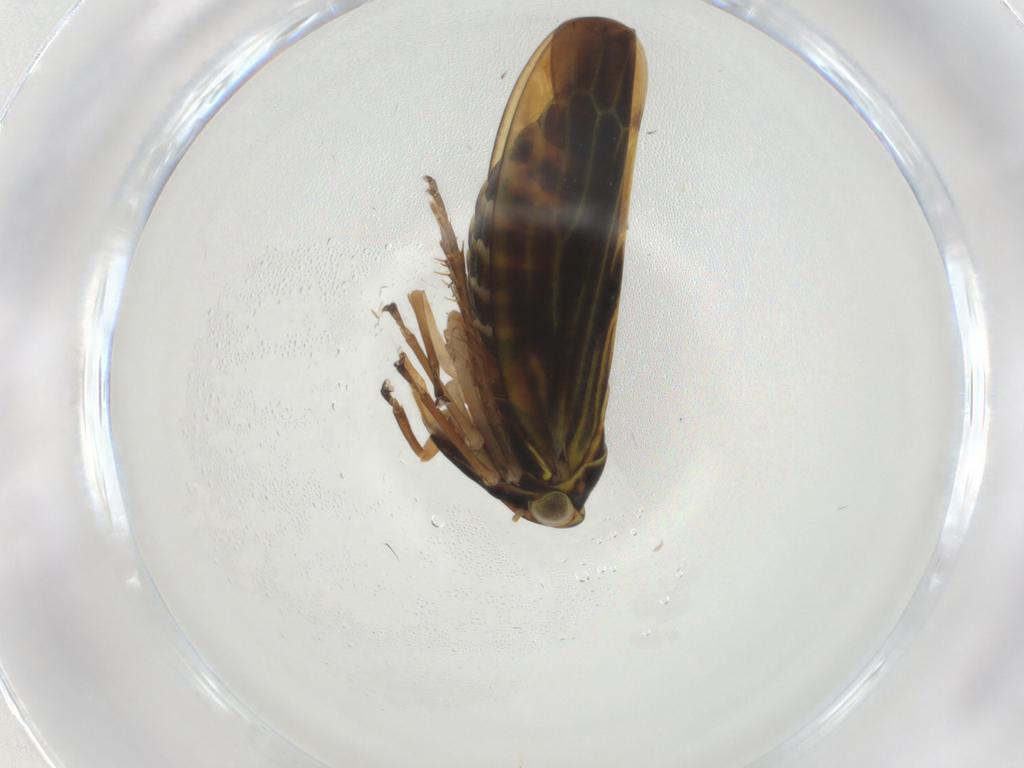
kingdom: Animalia
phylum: Arthropoda
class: Insecta
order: Hemiptera
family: Cicadellidae
